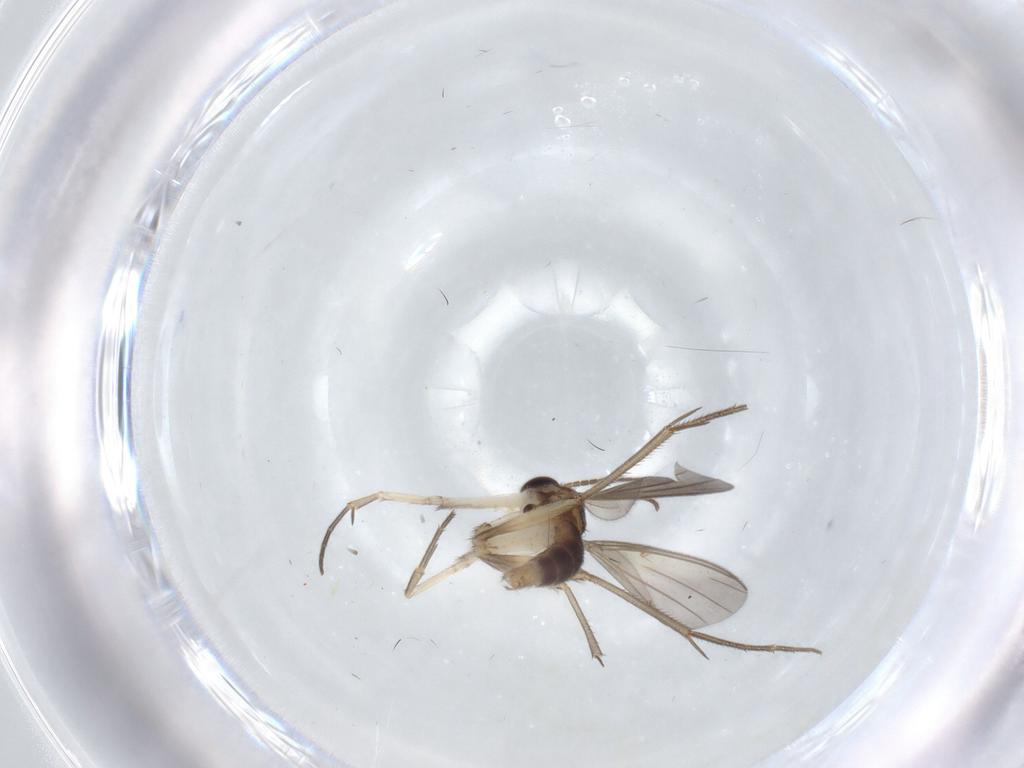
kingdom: Animalia
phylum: Arthropoda
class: Insecta
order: Diptera
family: Mycetophilidae
